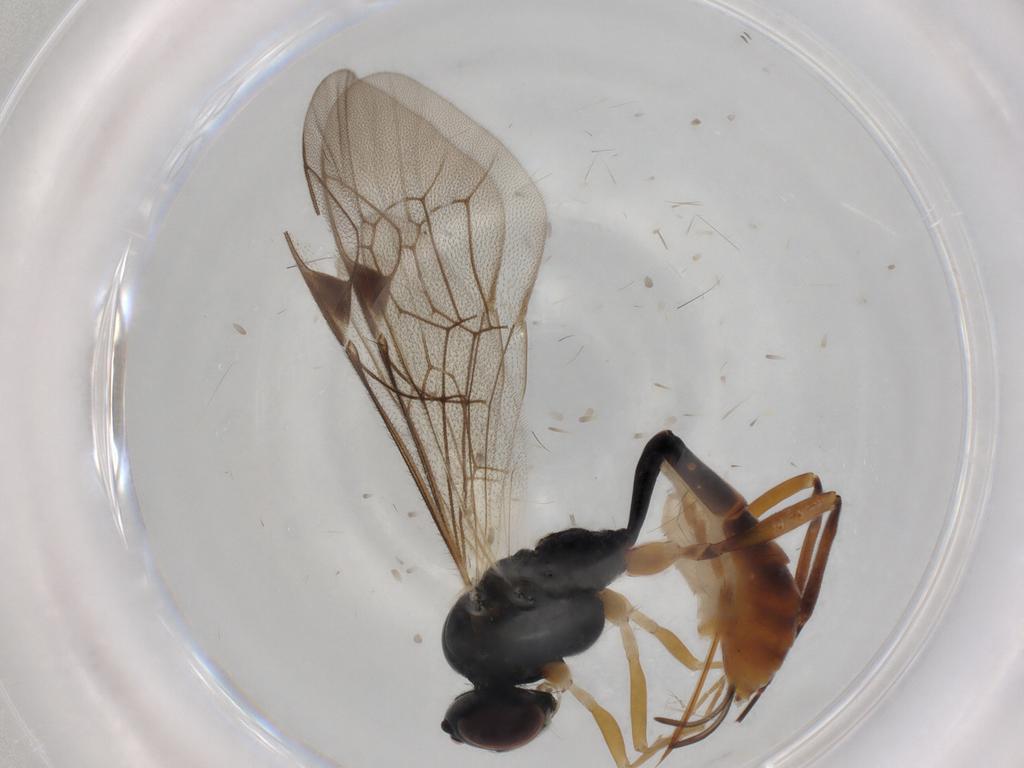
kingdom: Animalia
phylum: Arthropoda
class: Insecta
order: Hymenoptera
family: Ichneumonidae
